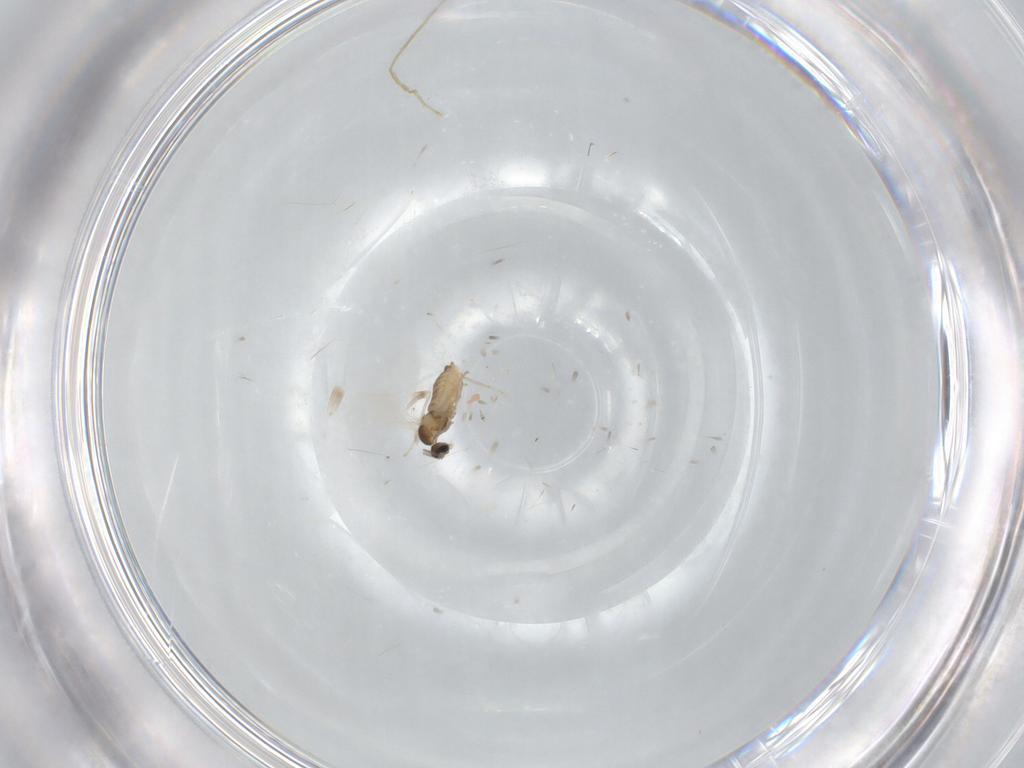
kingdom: Animalia
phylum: Arthropoda
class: Insecta
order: Diptera
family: Cecidomyiidae
